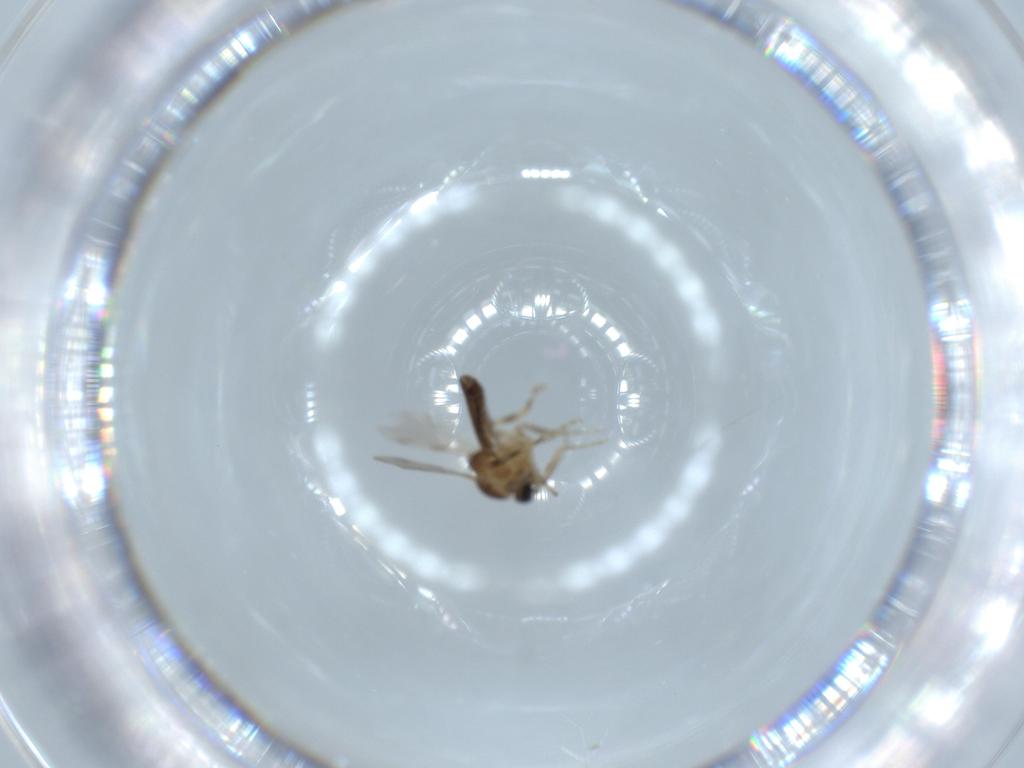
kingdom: Animalia
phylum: Arthropoda
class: Insecta
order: Diptera
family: Ceratopogonidae
